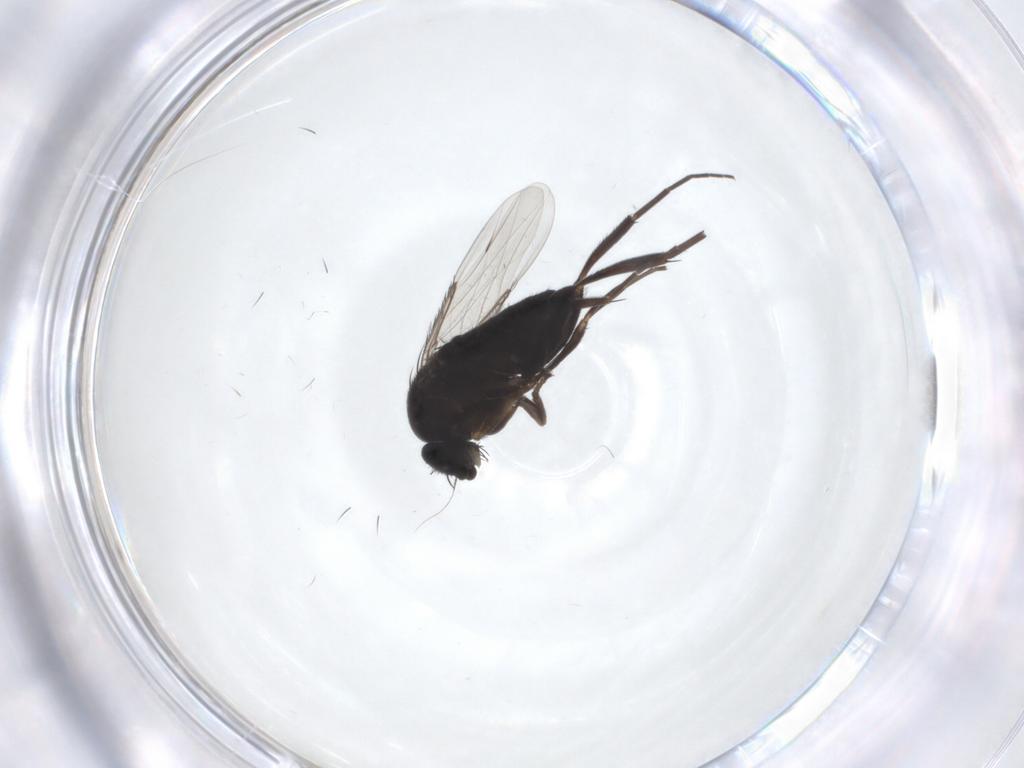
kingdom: Animalia
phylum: Arthropoda
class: Insecta
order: Diptera
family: Phoridae
